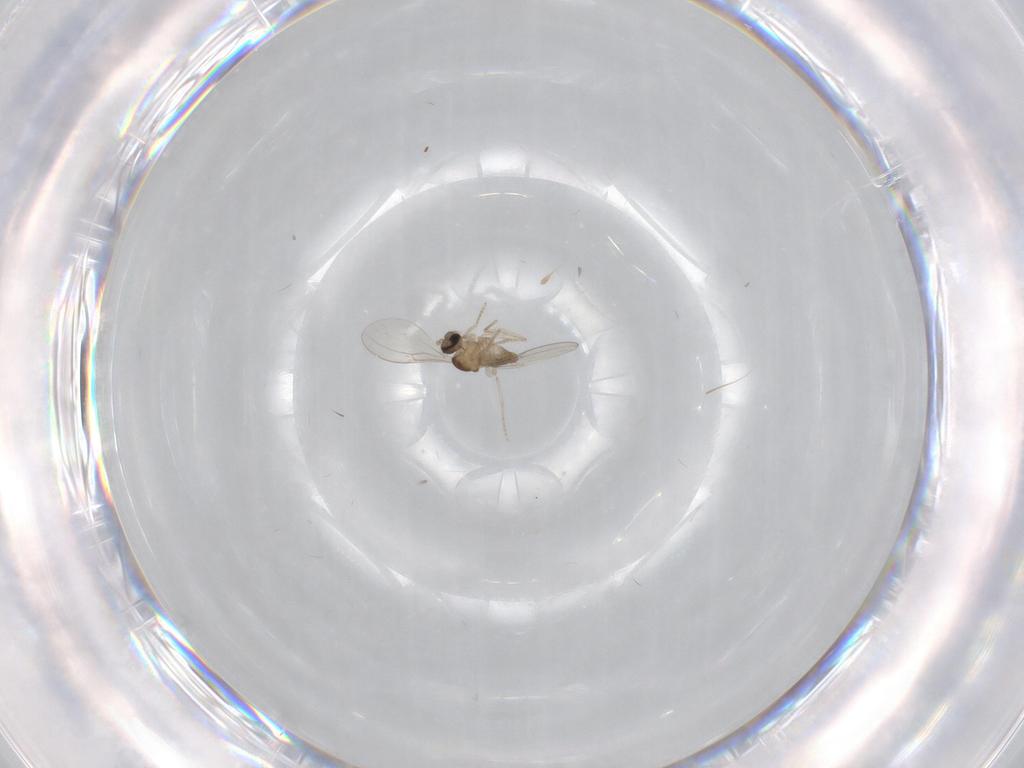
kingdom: Animalia
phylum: Arthropoda
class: Insecta
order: Diptera
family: Cecidomyiidae
